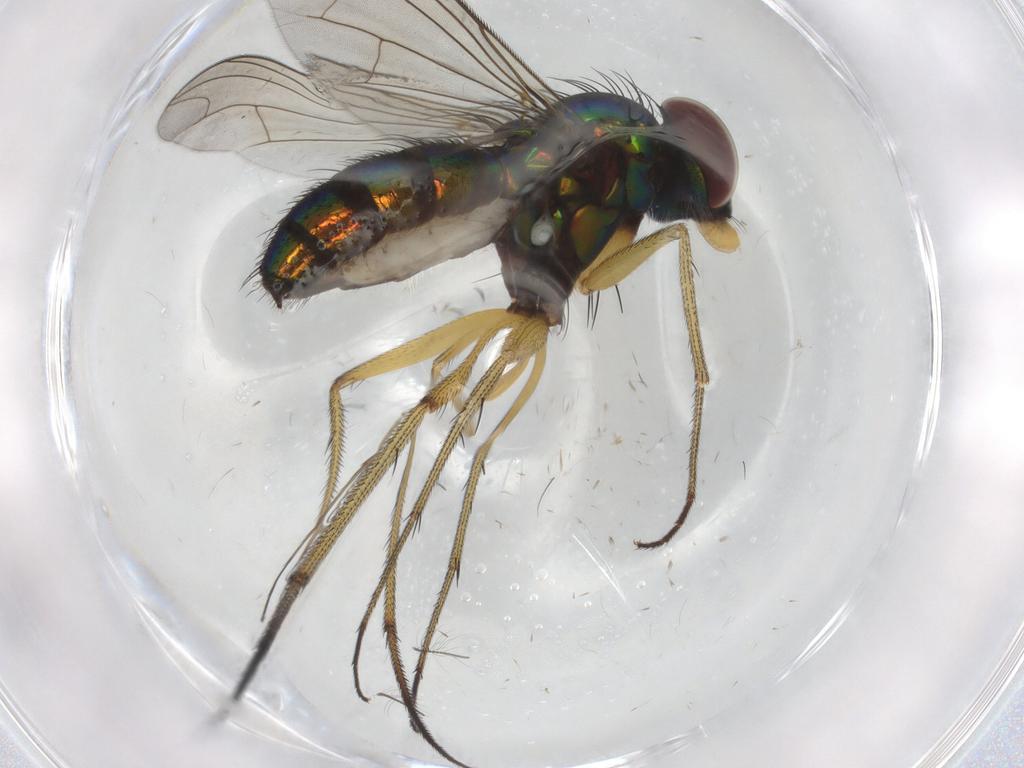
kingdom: Animalia
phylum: Arthropoda
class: Insecta
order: Diptera
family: Dolichopodidae
